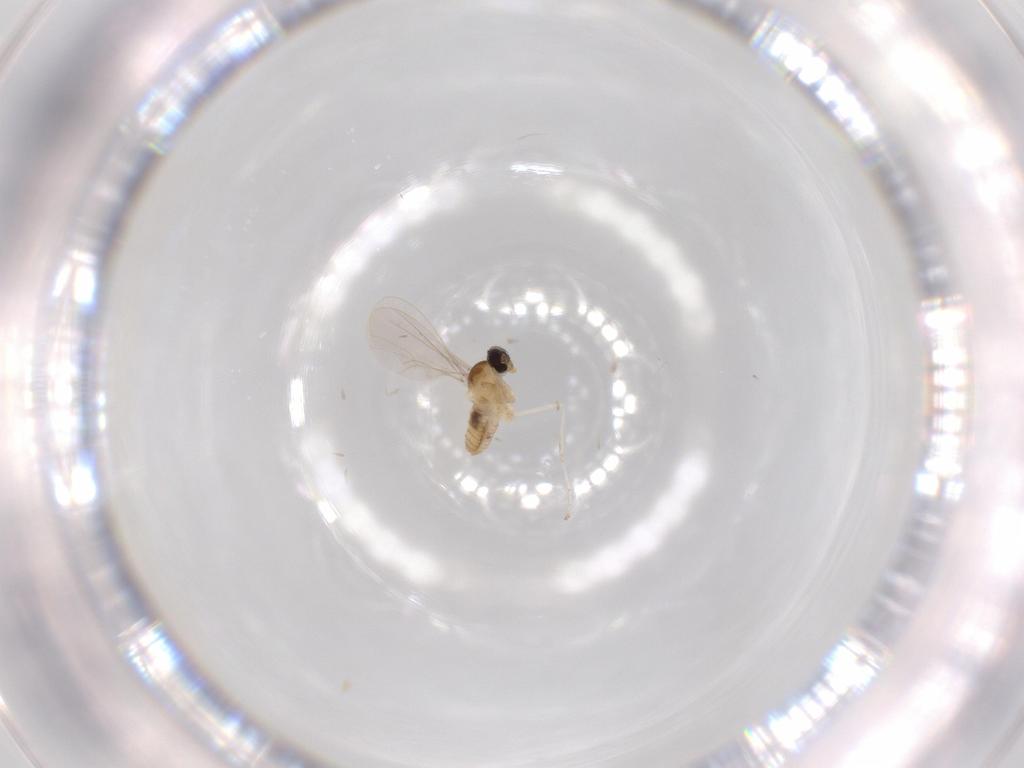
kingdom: Animalia
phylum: Arthropoda
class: Insecta
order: Diptera
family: Cecidomyiidae
